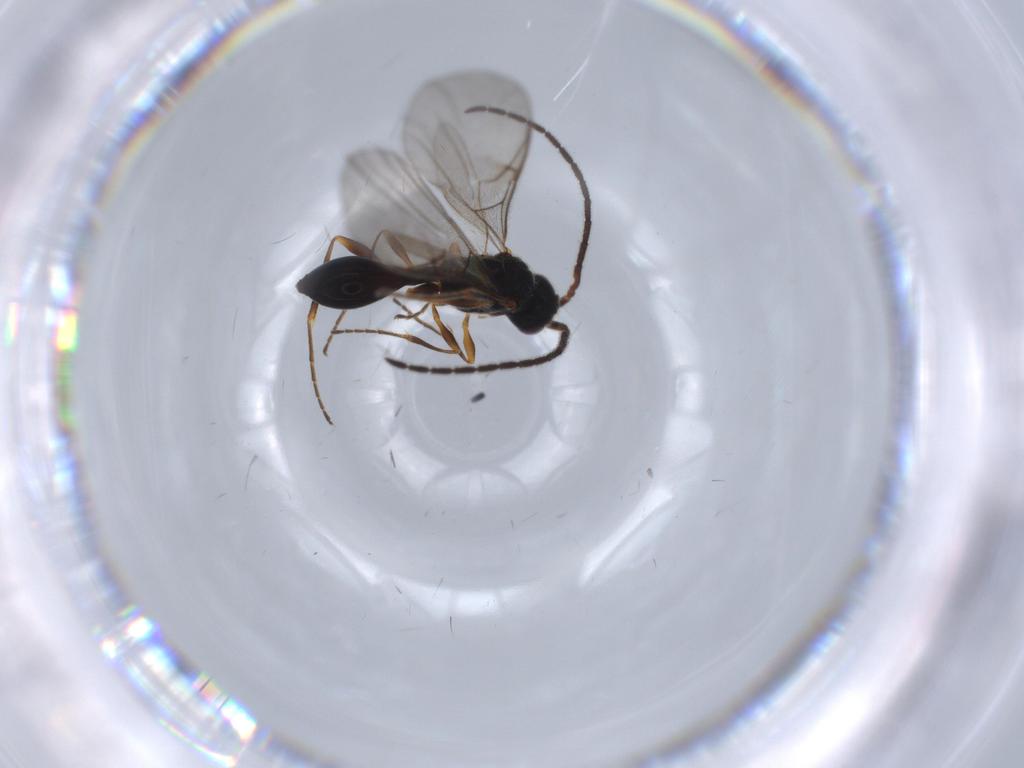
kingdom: Animalia
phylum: Arthropoda
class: Insecta
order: Hymenoptera
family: Diapriidae
